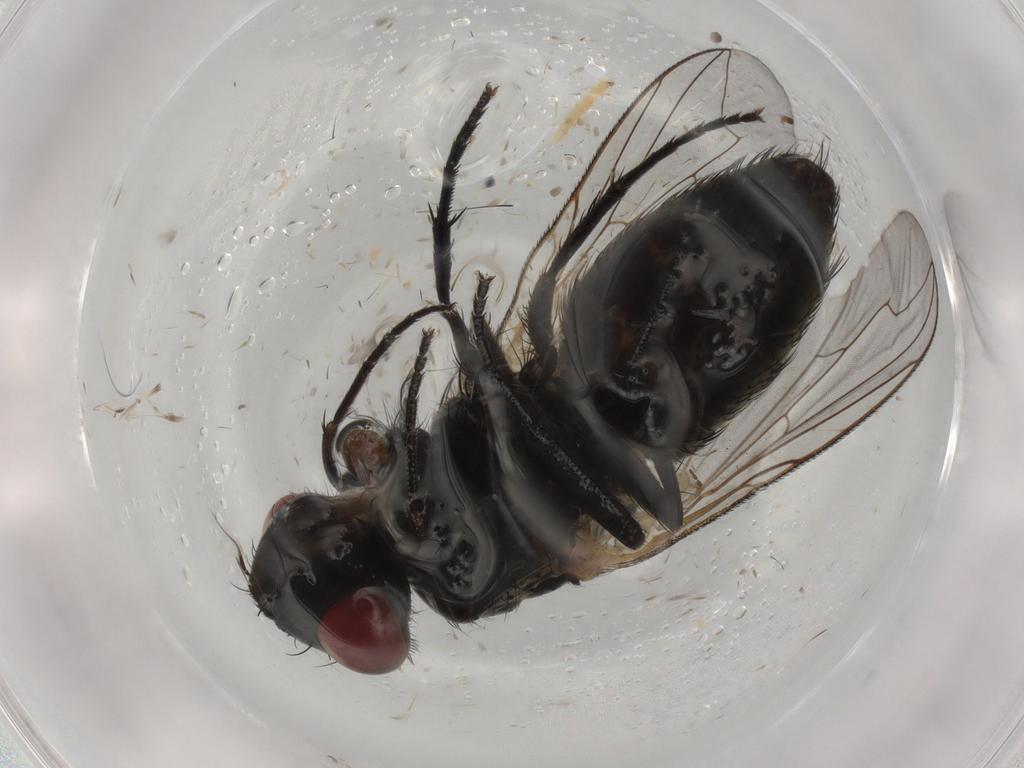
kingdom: Animalia
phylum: Arthropoda
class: Insecta
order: Diptera
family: Sarcophagidae
